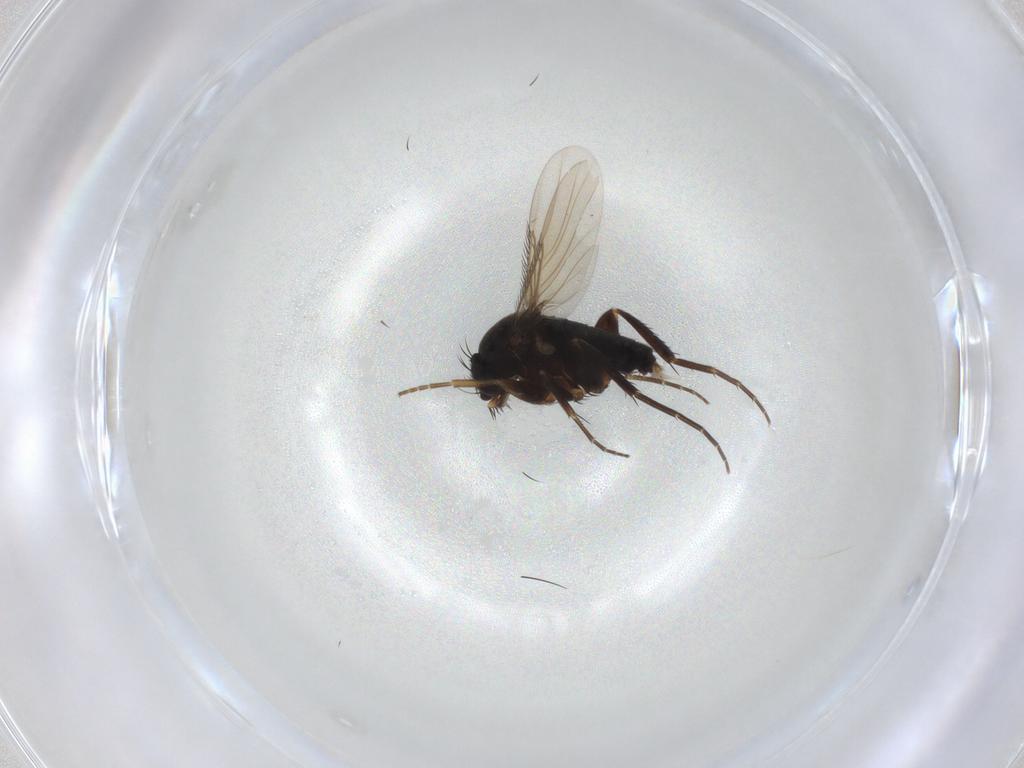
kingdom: Animalia
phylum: Arthropoda
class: Insecta
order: Diptera
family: Phoridae
